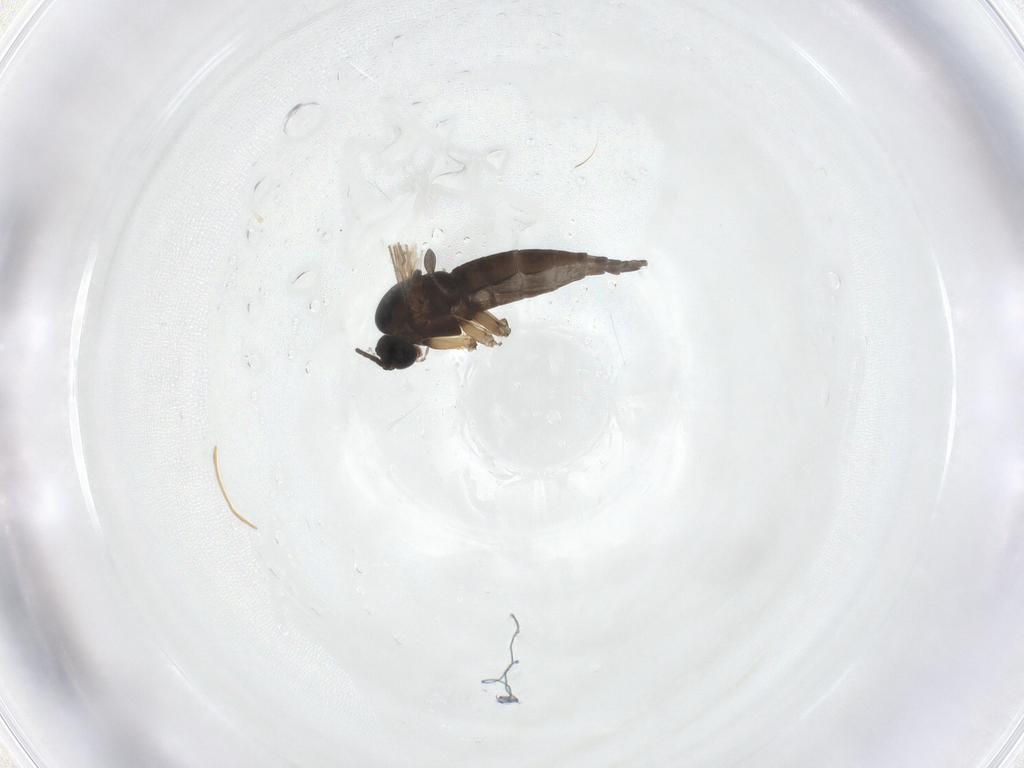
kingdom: Animalia
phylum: Arthropoda
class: Insecta
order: Diptera
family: Sciaridae
